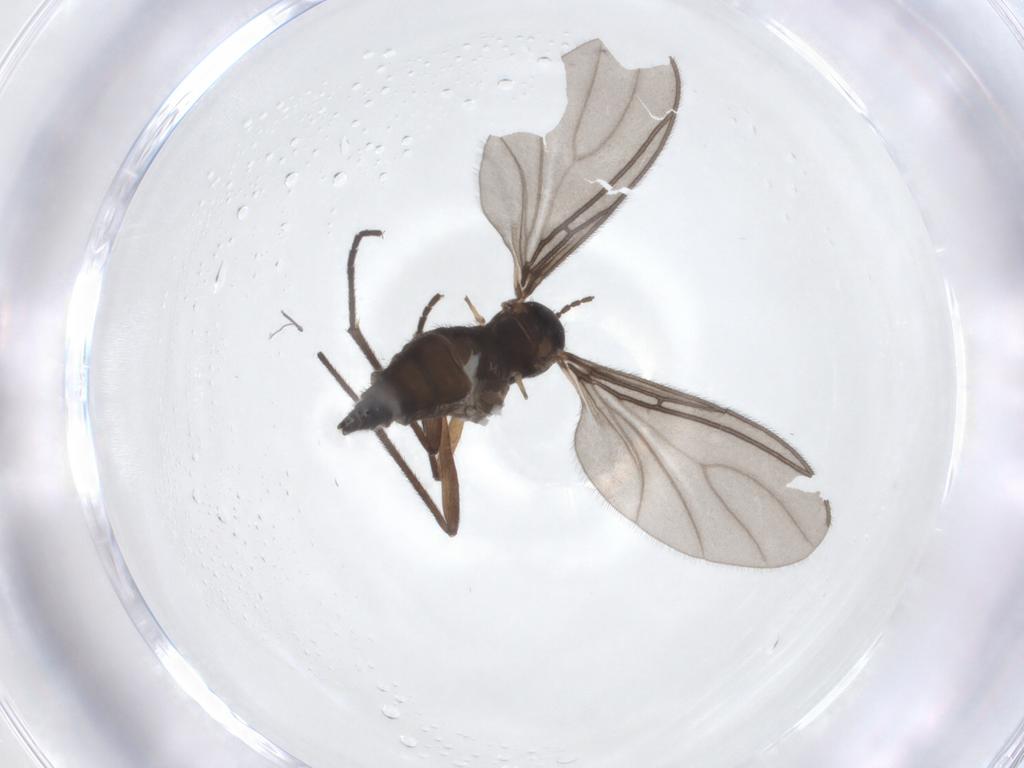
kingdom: Animalia
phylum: Arthropoda
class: Insecta
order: Diptera
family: Sciaridae
